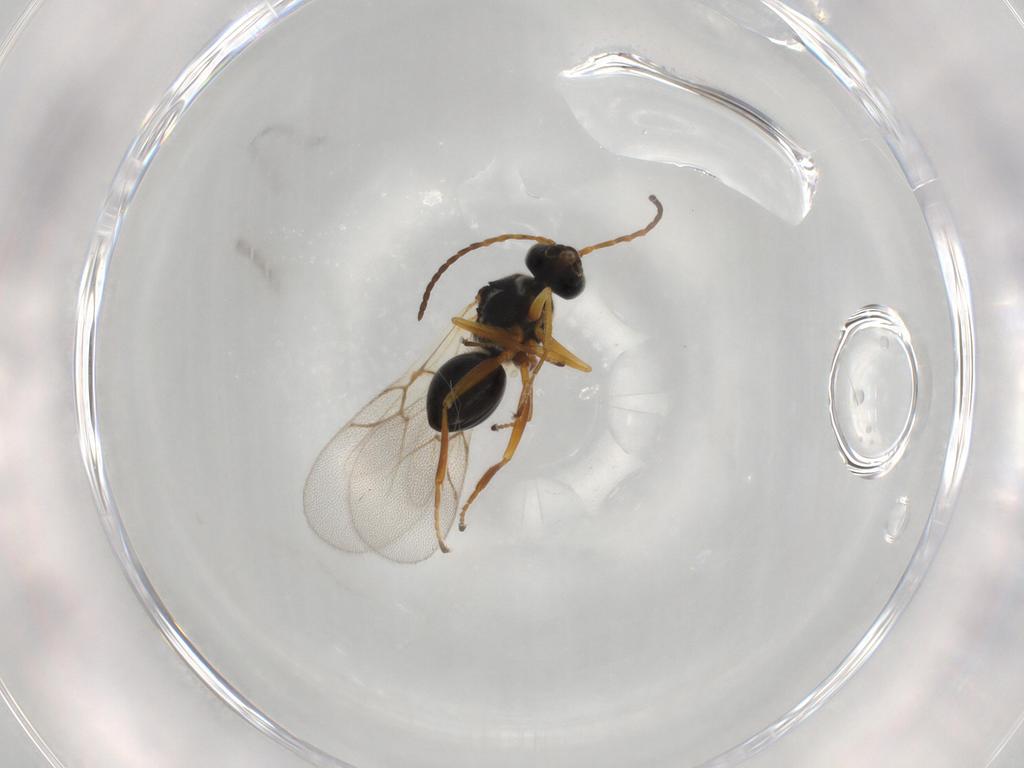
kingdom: Animalia
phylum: Arthropoda
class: Insecta
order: Hymenoptera
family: Figitidae
